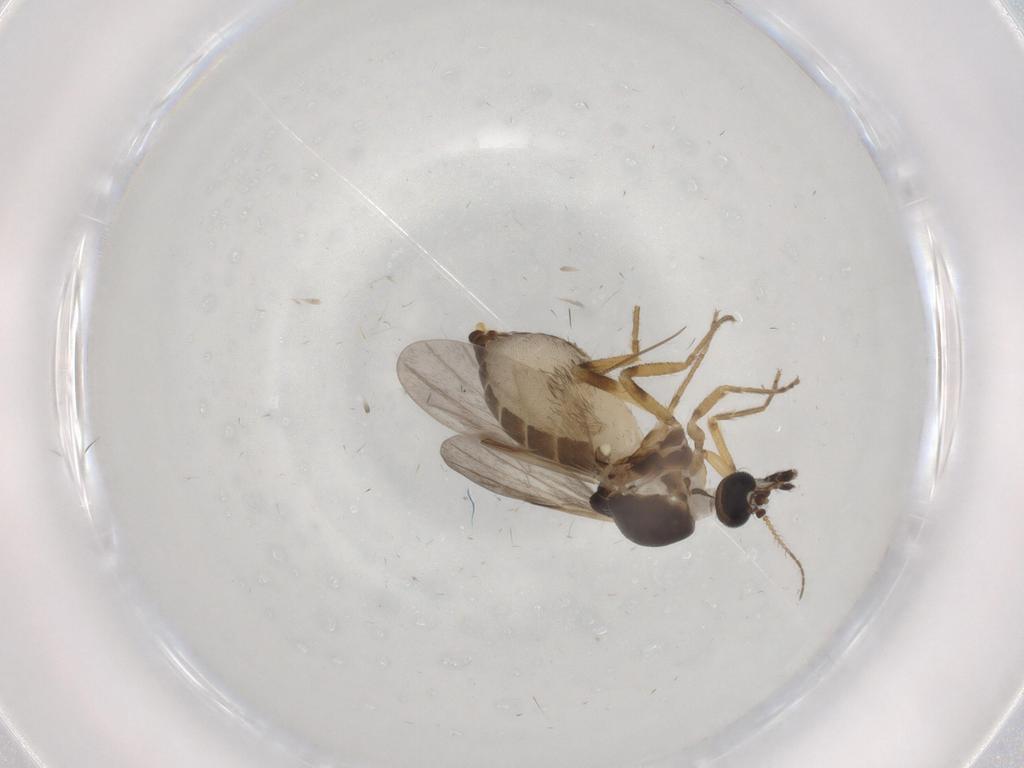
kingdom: Animalia
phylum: Arthropoda
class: Insecta
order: Diptera
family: Ceratopogonidae
